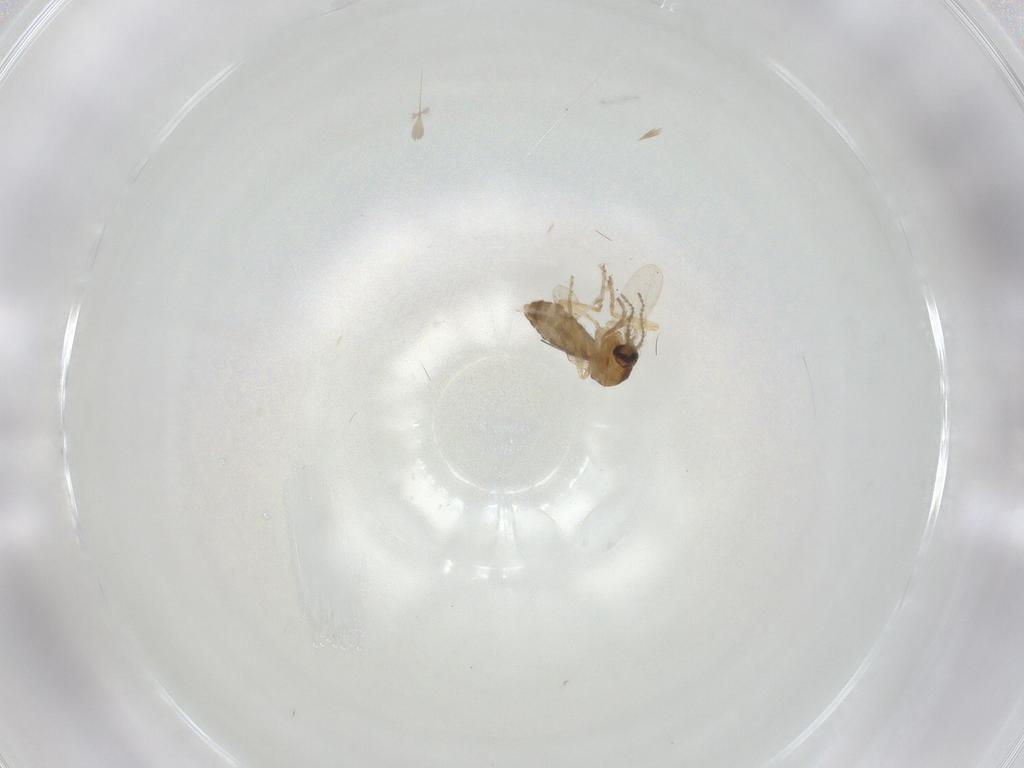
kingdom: Animalia
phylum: Arthropoda
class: Insecta
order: Diptera
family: Ceratopogonidae
